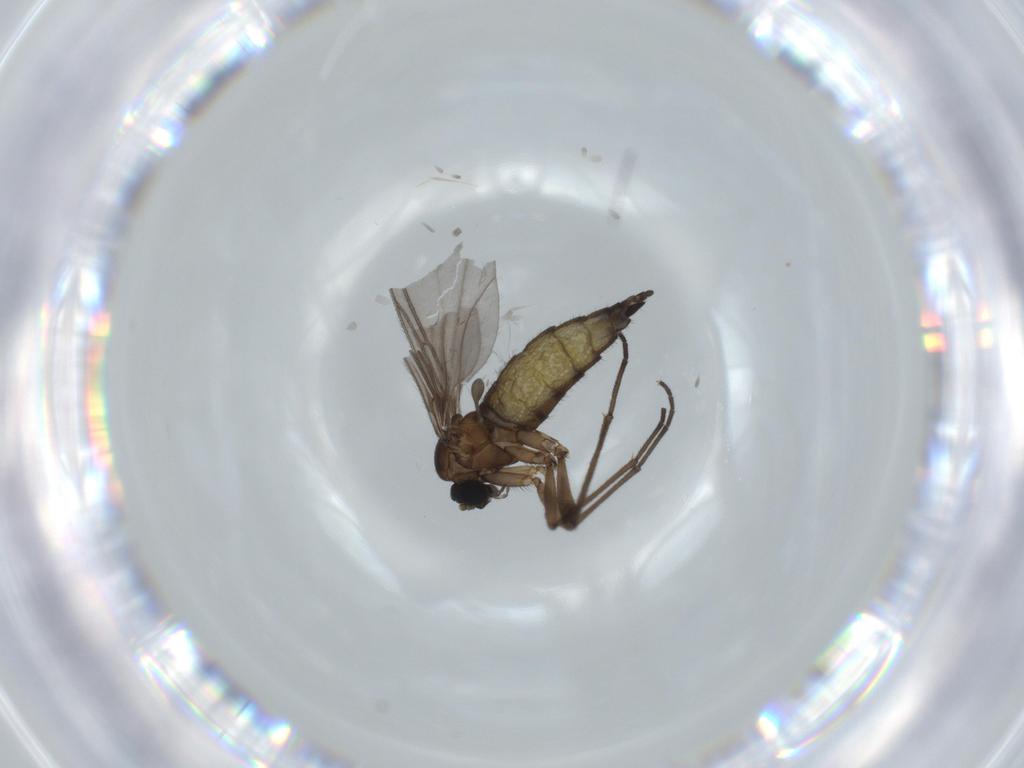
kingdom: Animalia
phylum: Arthropoda
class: Insecta
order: Diptera
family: Sciaridae
